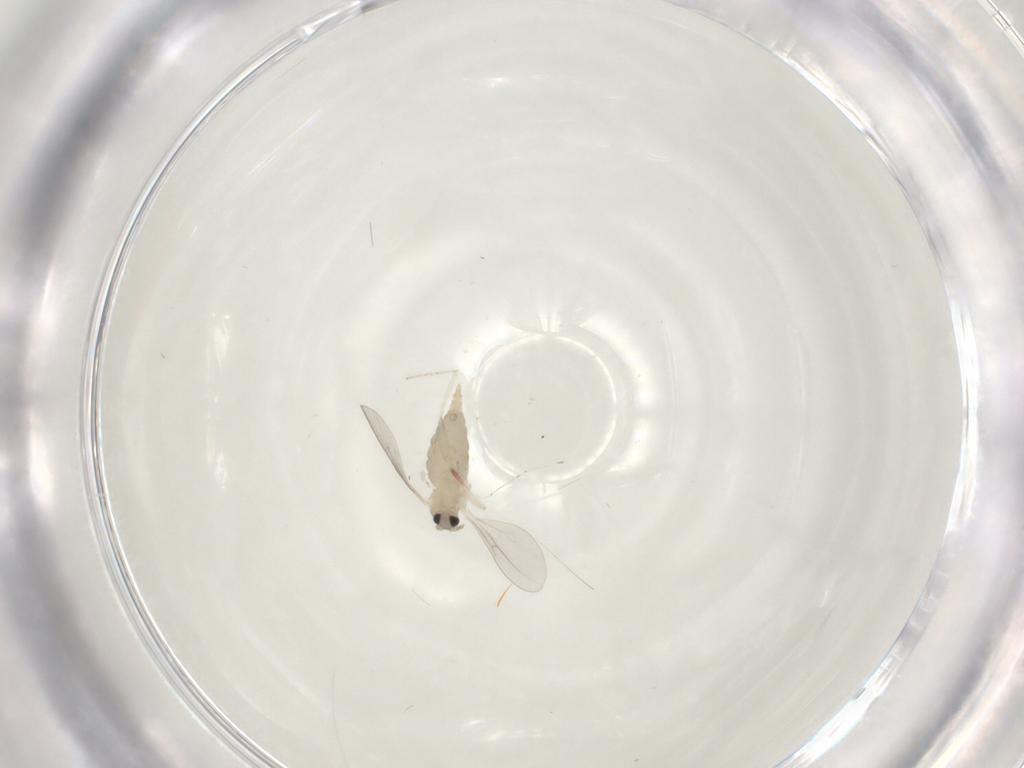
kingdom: Animalia
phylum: Arthropoda
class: Insecta
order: Diptera
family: Cecidomyiidae
